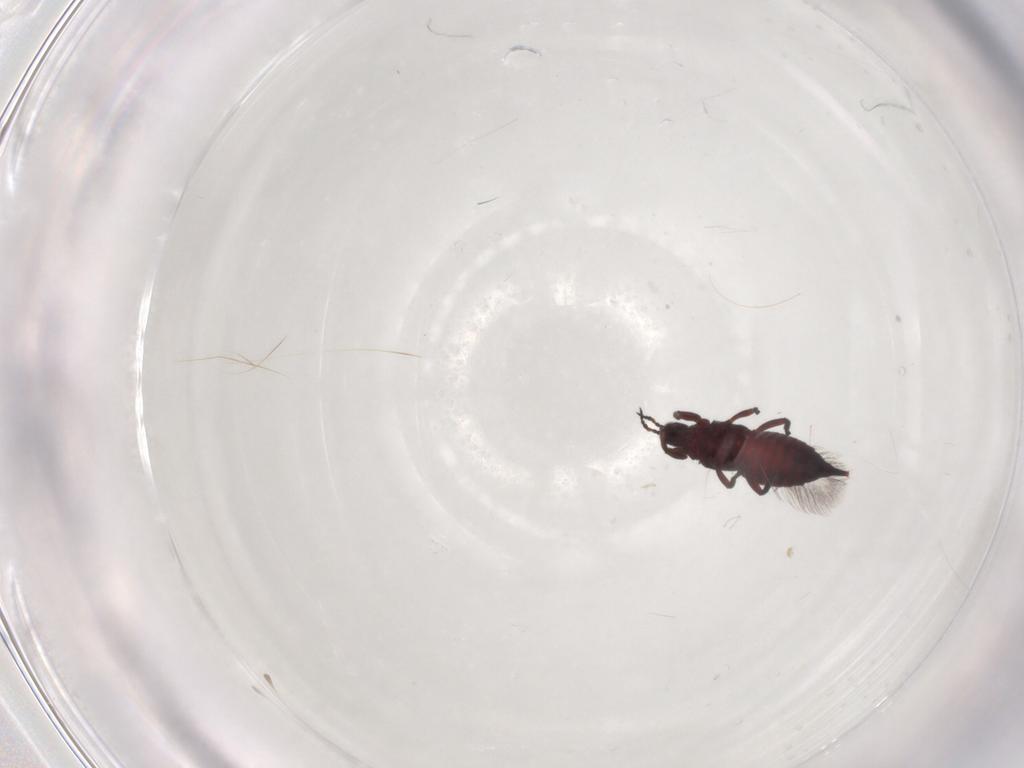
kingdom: Animalia
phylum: Arthropoda
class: Insecta
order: Thysanoptera
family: Phlaeothripidae
